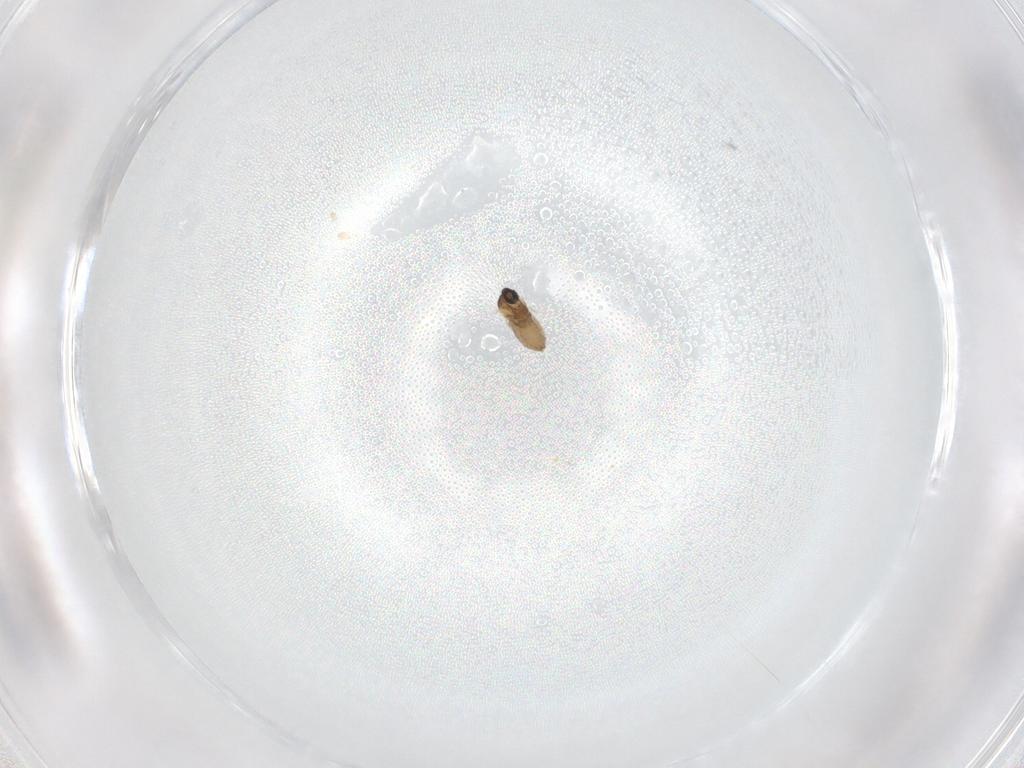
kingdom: Animalia
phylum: Arthropoda
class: Insecta
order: Diptera
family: Cecidomyiidae
